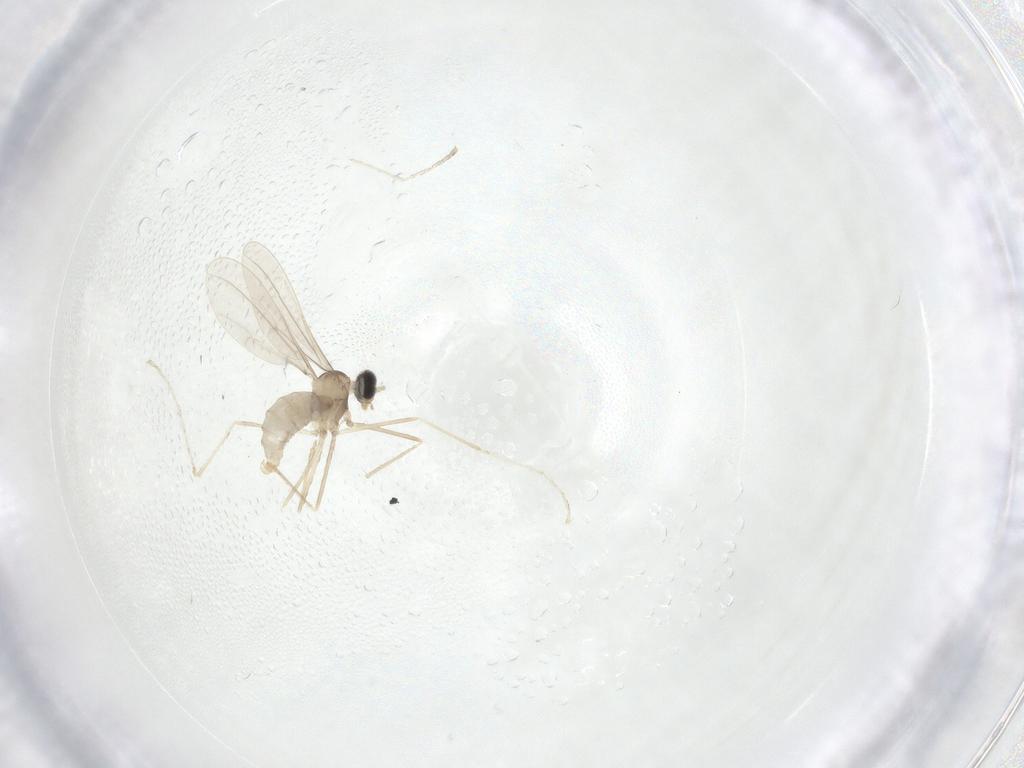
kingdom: Animalia
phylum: Arthropoda
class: Insecta
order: Diptera
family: Cecidomyiidae
